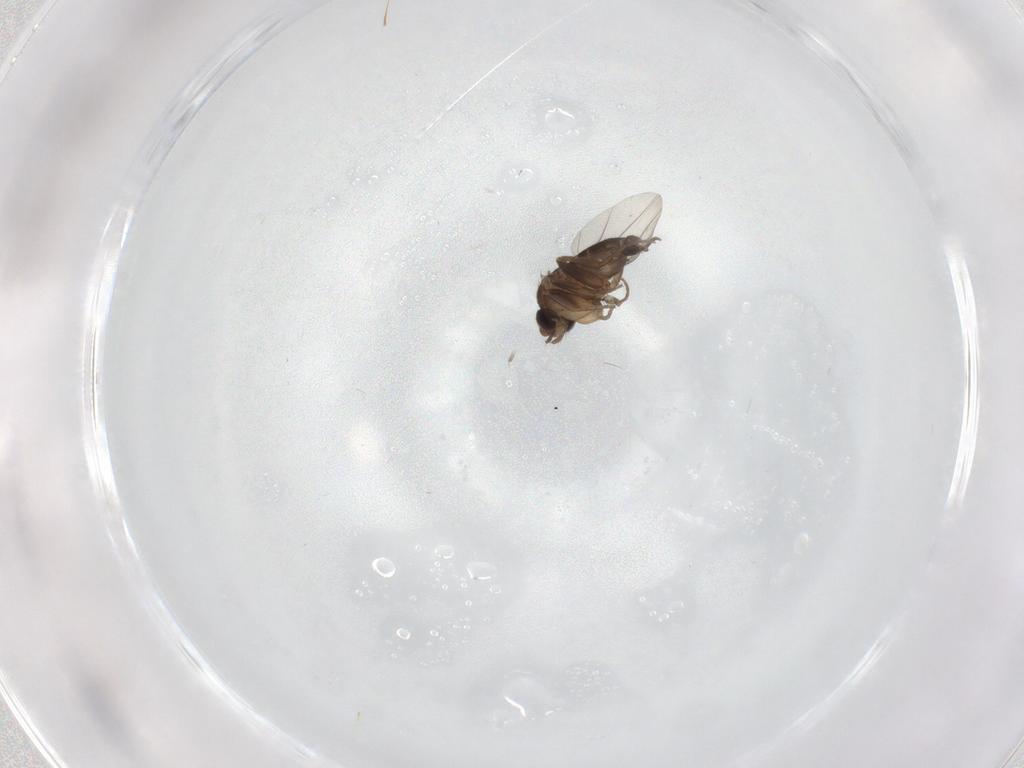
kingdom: Animalia
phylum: Arthropoda
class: Insecta
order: Diptera
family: Phoridae
